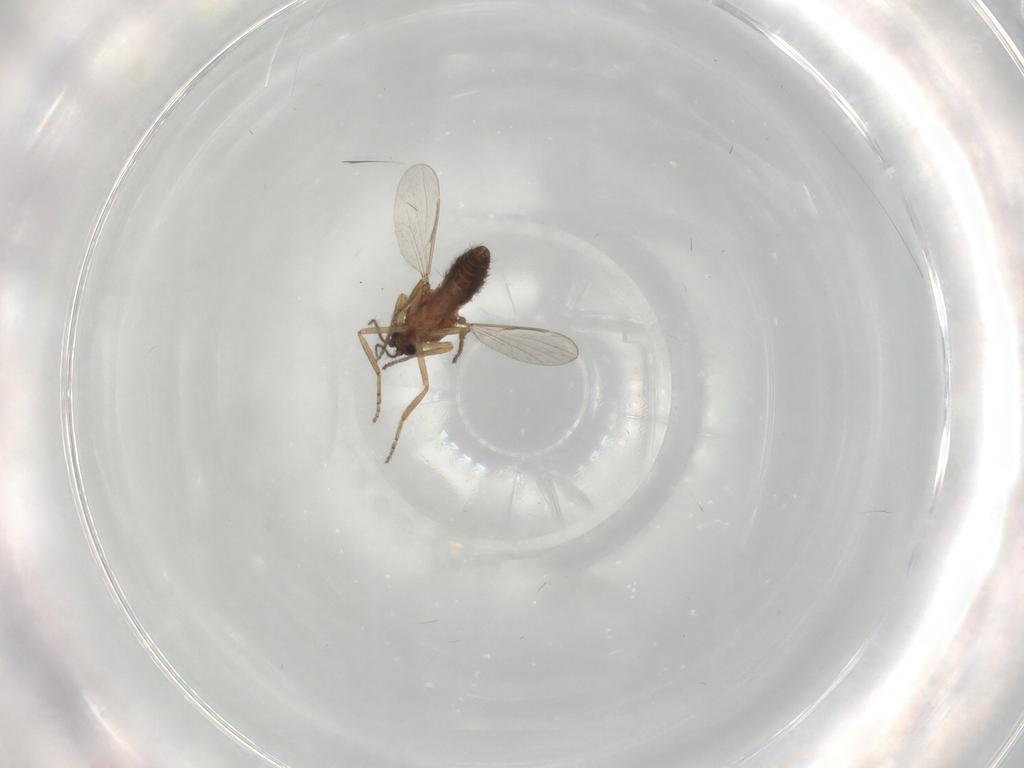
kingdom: Animalia
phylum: Arthropoda
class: Insecta
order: Diptera
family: Ceratopogonidae
